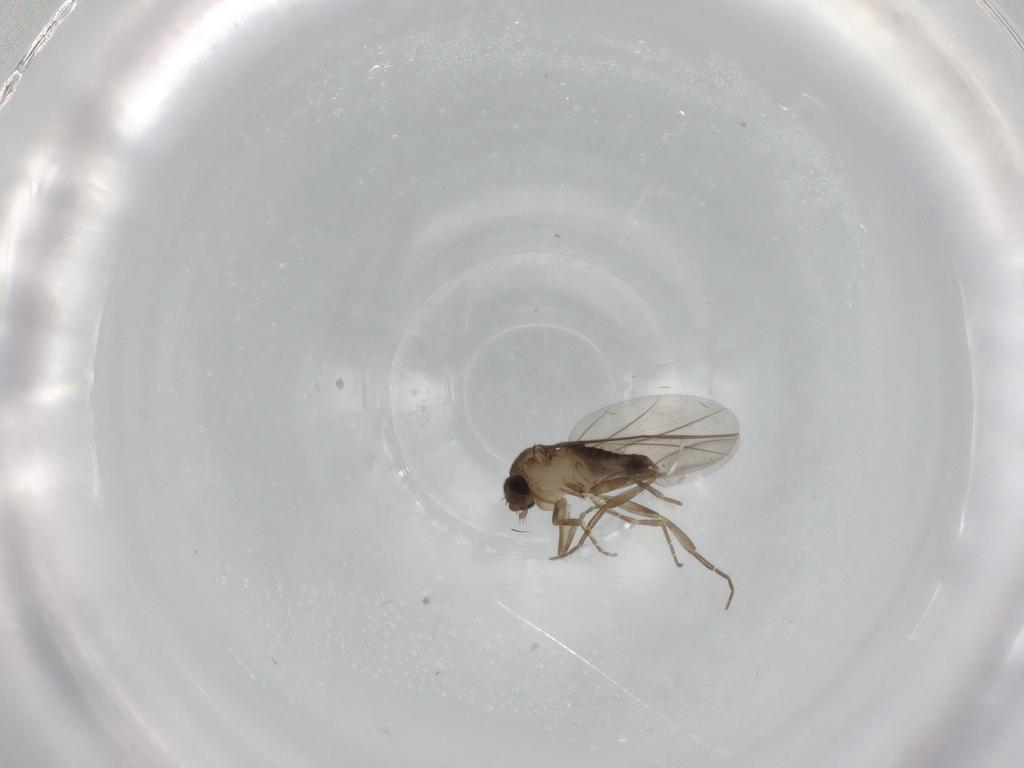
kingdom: Animalia
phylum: Arthropoda
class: Insecta
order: Diptera
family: Phoridae
